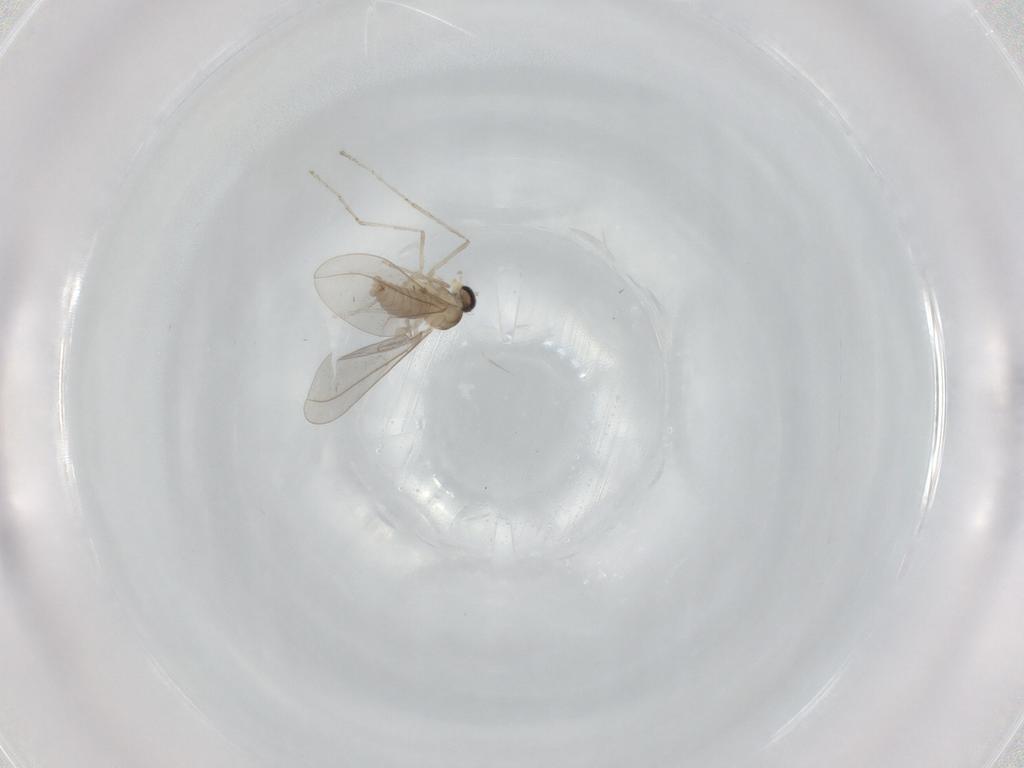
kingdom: Animalia
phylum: Arthropoda
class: Insecta
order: Diptera
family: Cecidomyiidae
